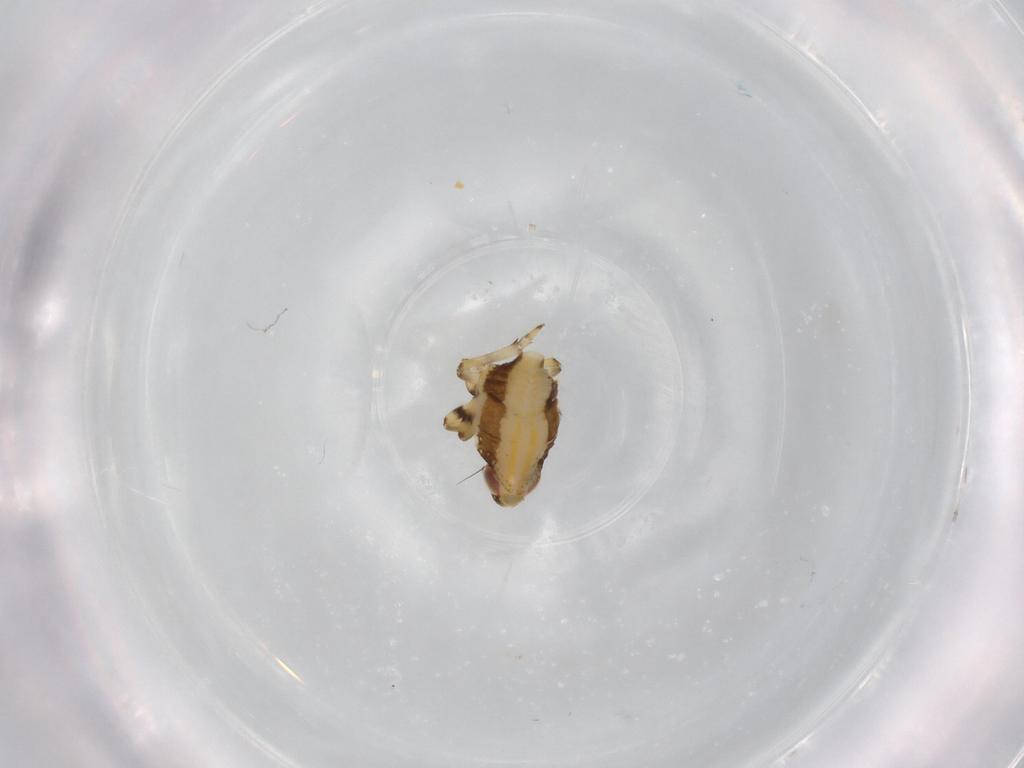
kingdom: Animalia
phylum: Arthropoda
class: Insecta
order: Hemiptera
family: Issidae
